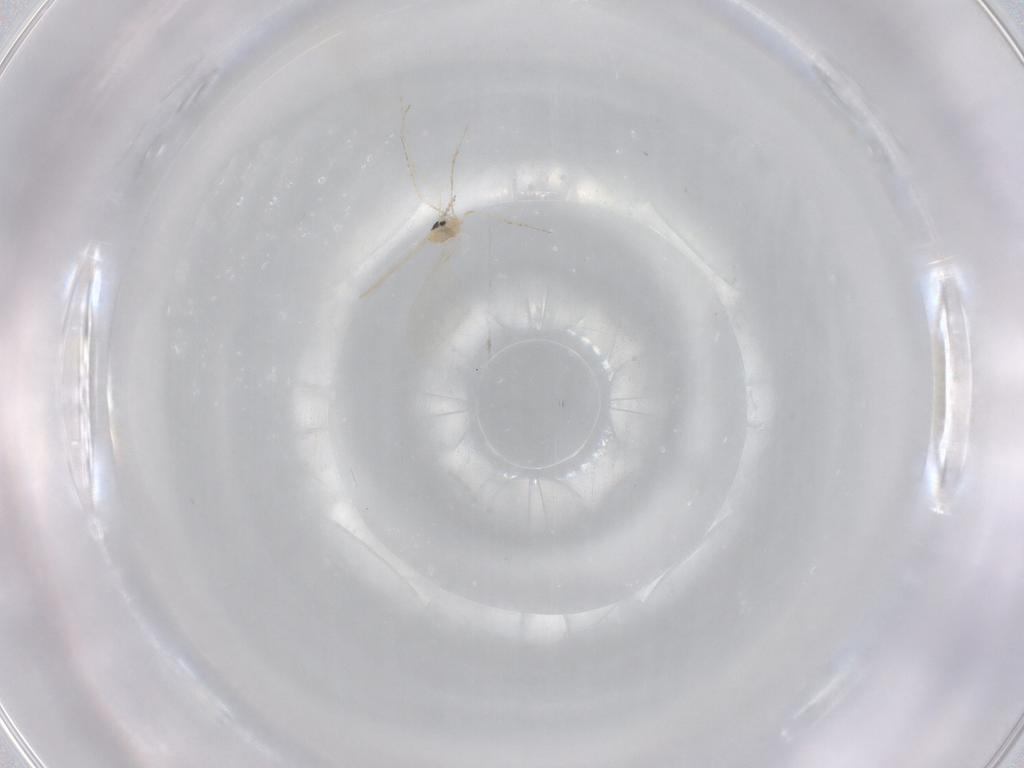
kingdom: Animalia
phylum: Arthropoda
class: Insecta
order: Diptera
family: Cecidomyiidae
